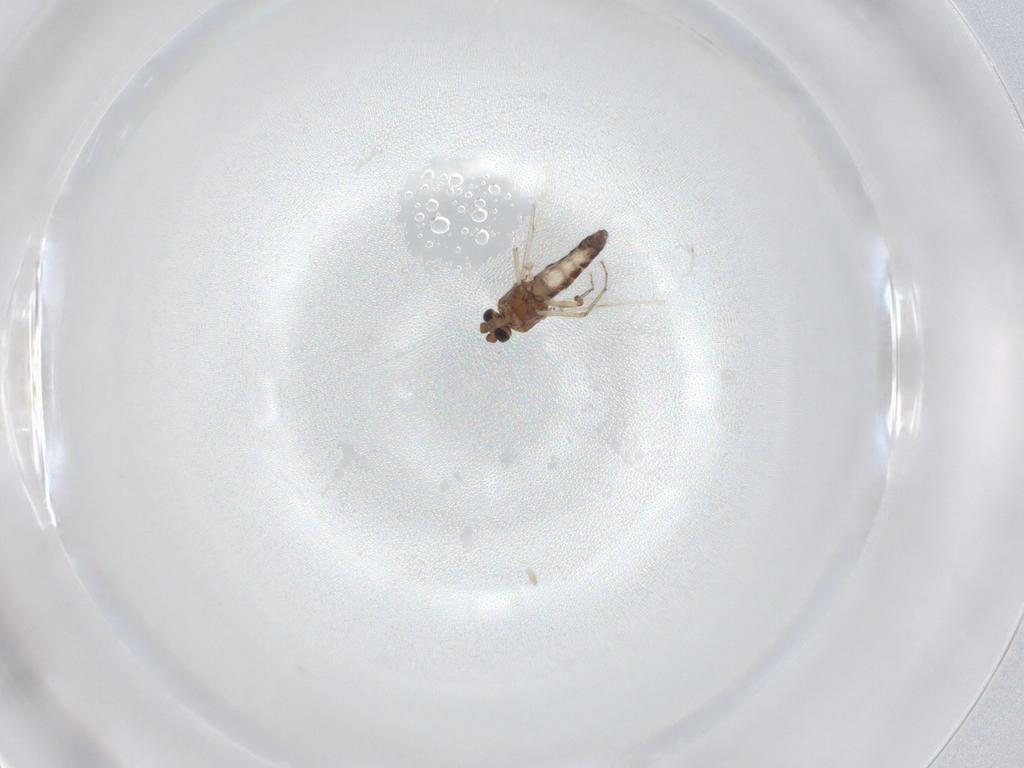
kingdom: Animalia
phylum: Arthropoda
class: Insecta
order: Diptera
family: Ceratopogonidae
